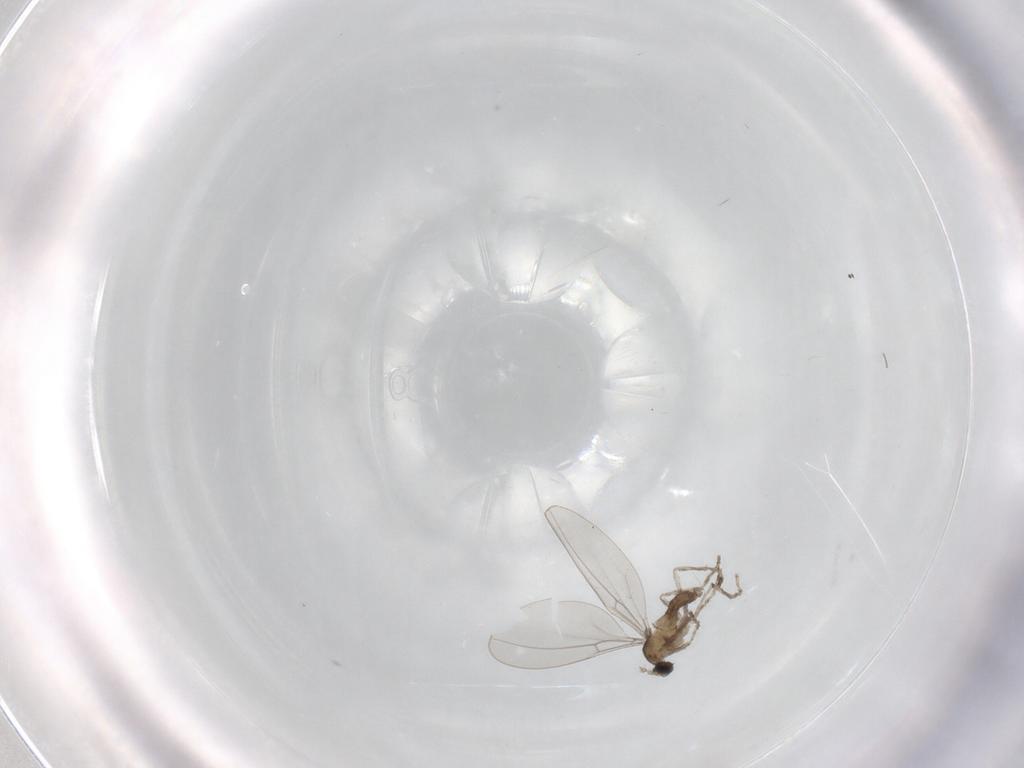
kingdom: Animalia
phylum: Arthropoda
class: Insecta
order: Diptera
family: Cecidomyiidae
